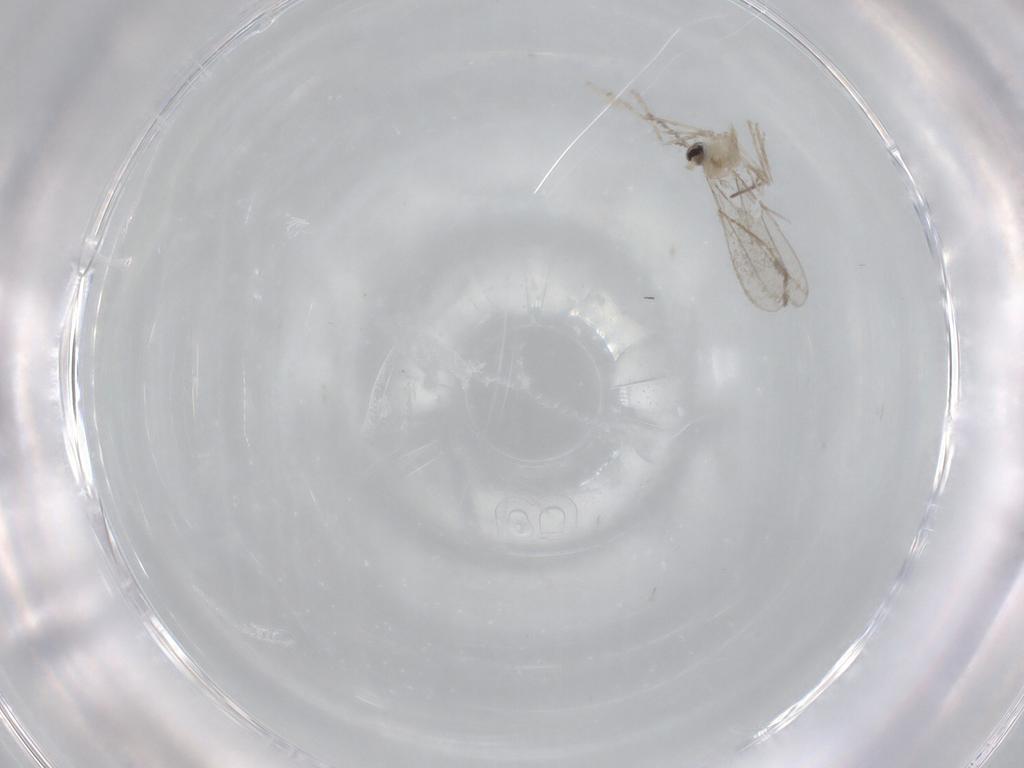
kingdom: Animalia
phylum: Arthropoda
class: Insecta
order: Diptera
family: Cecidomyiidae
